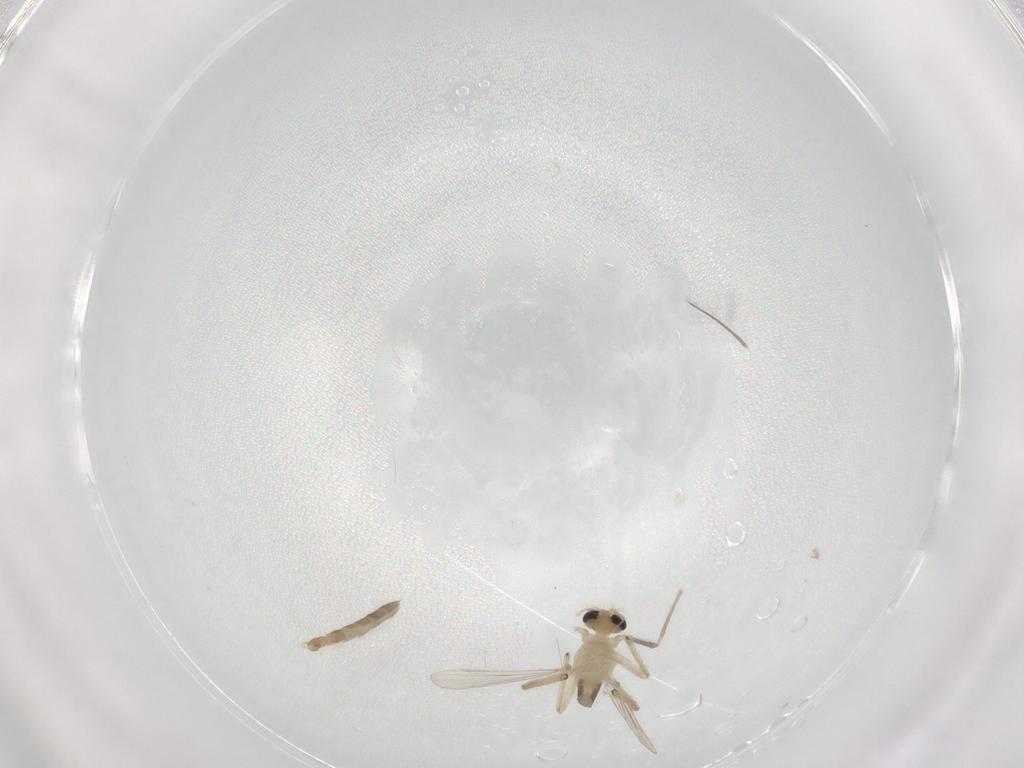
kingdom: Animalia
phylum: Arthropoda
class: Insecta
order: Diptera
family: Chironomidae
